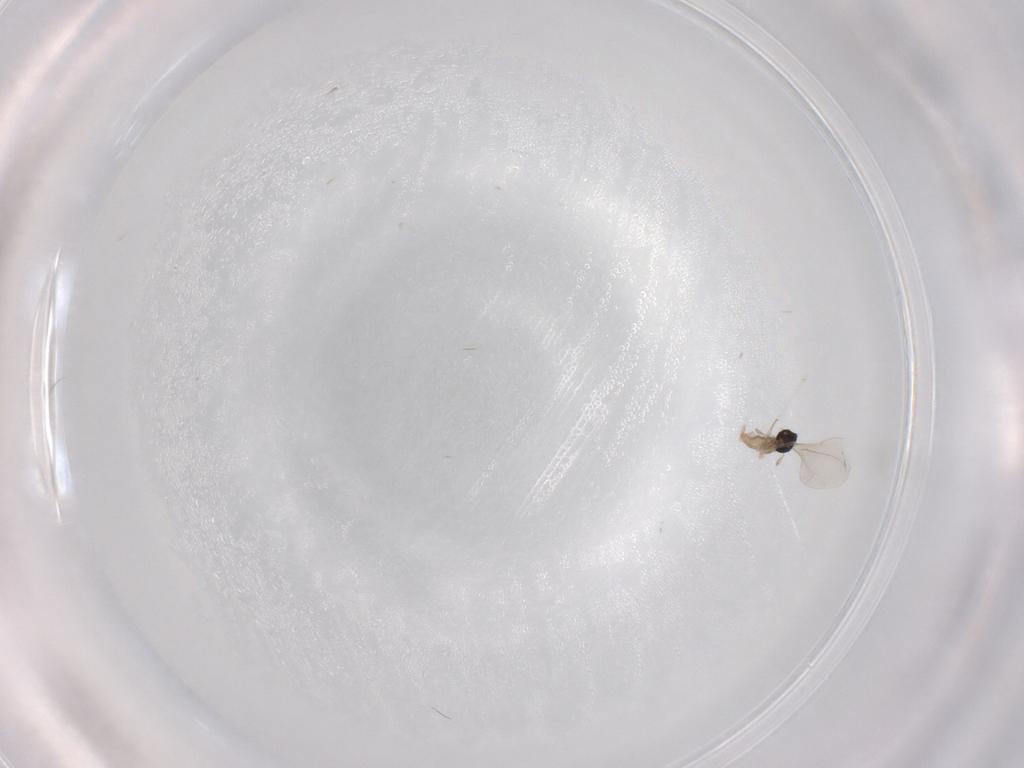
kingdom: Animalia
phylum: Arthropoda
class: Insecta
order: Diptera
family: Cecidomyiidae
